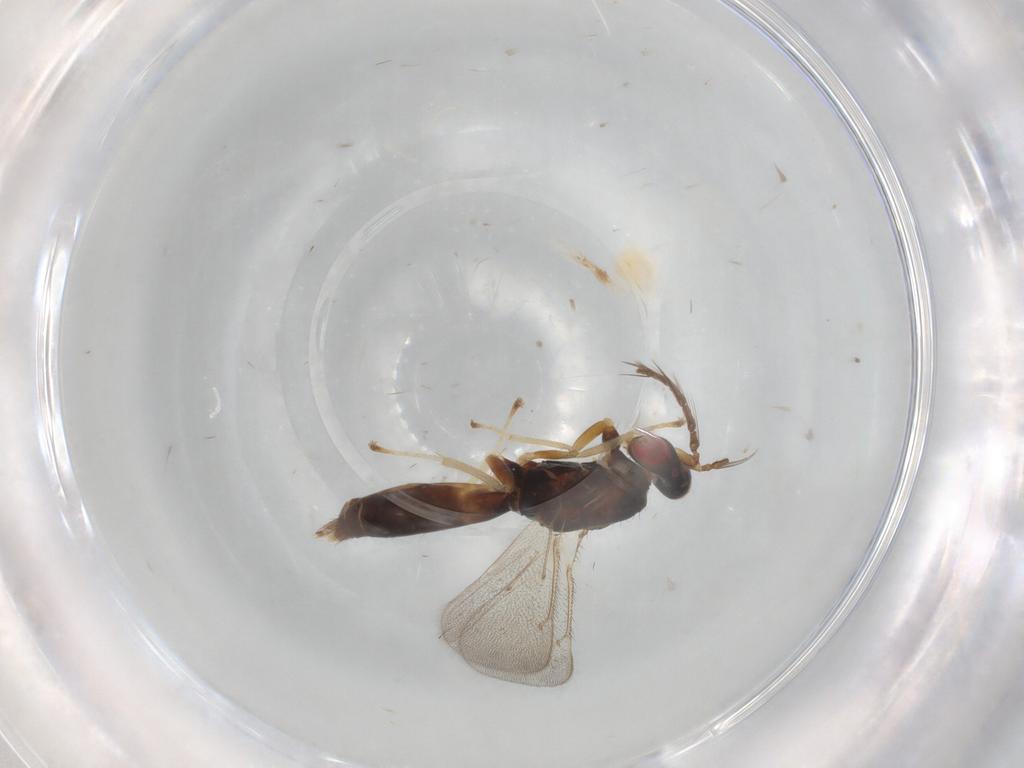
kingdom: Animalia
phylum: Arthropoda
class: Insecta
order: Hymenoptera
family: Eulophidae
